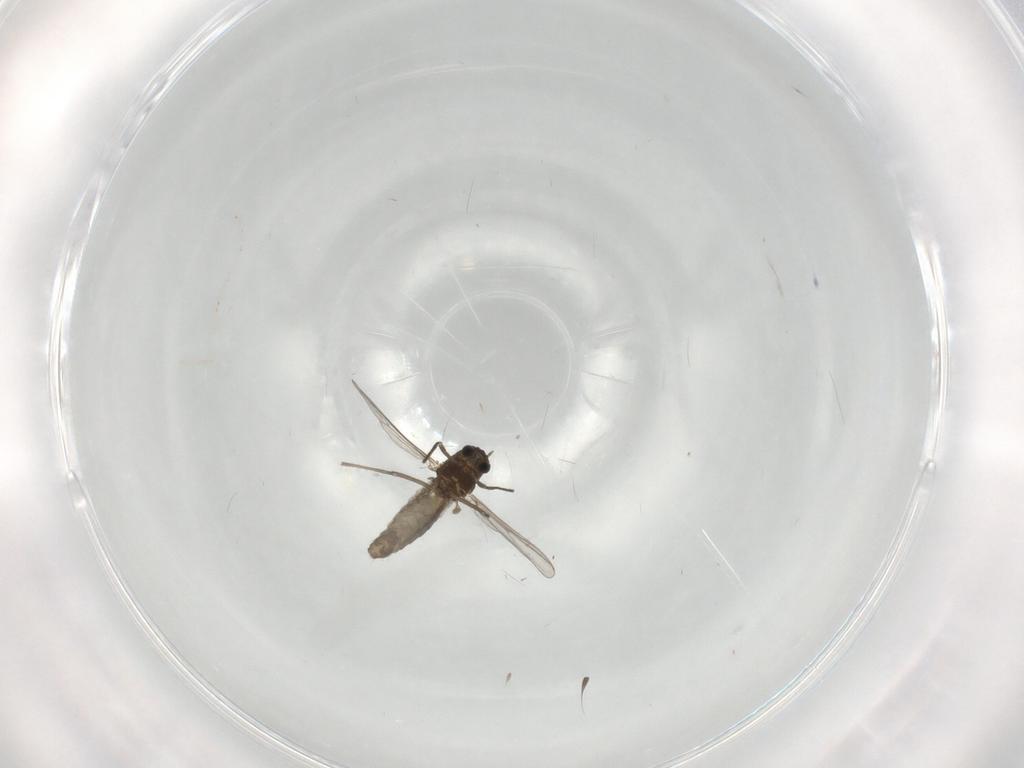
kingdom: Animalia
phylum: Arthropoda
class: Insecta
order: Diptera
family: Chironomidae
